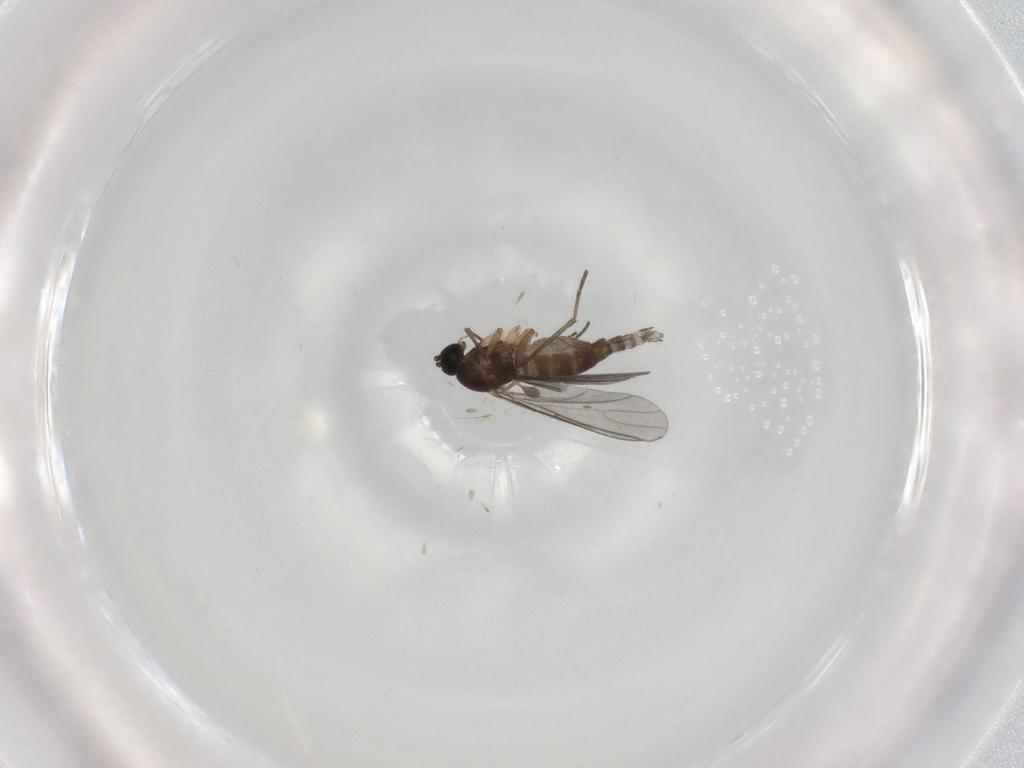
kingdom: Animalia
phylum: Arthropoda
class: Insecta
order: Diptera
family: Sciaridae
